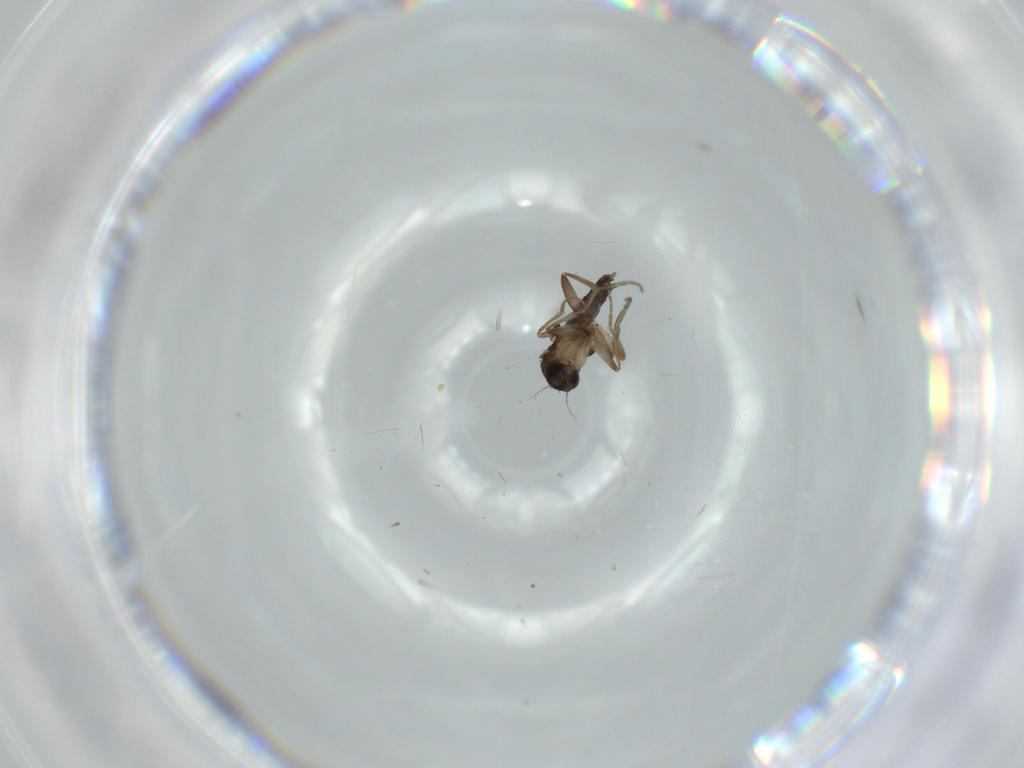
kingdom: Animalia
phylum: Arthropoda
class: Insecta
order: Diptera
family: Phoridae
